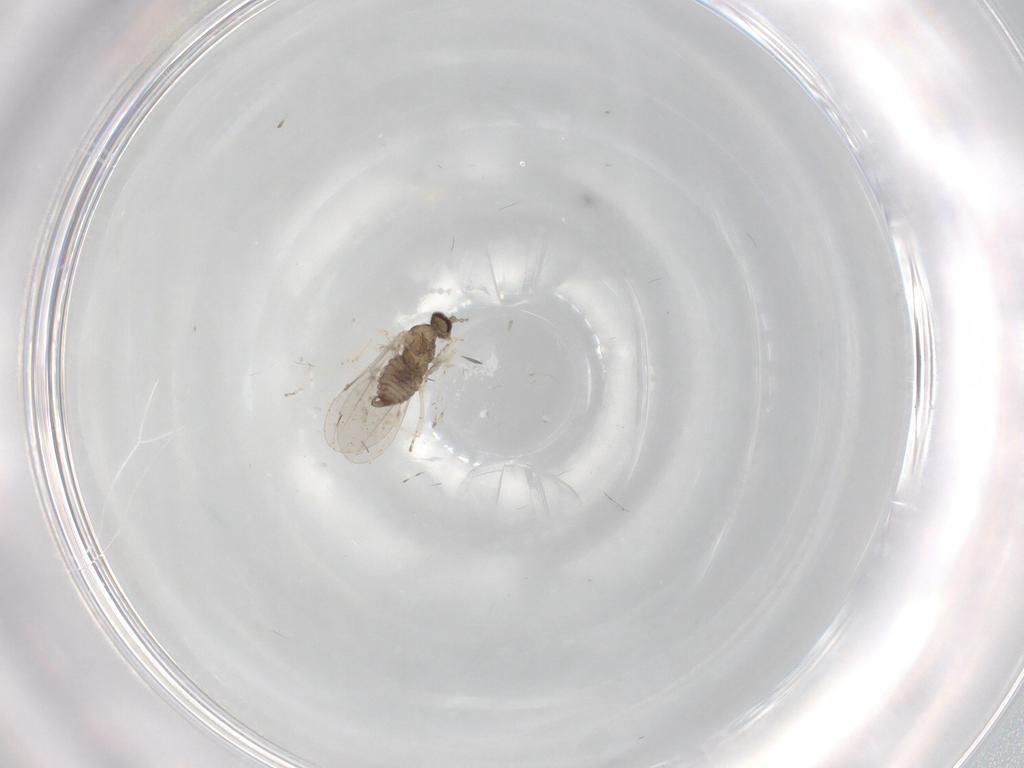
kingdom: Animalia
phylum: Arthropoda
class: Insecta
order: Diptera
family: Cecidomyiidae
